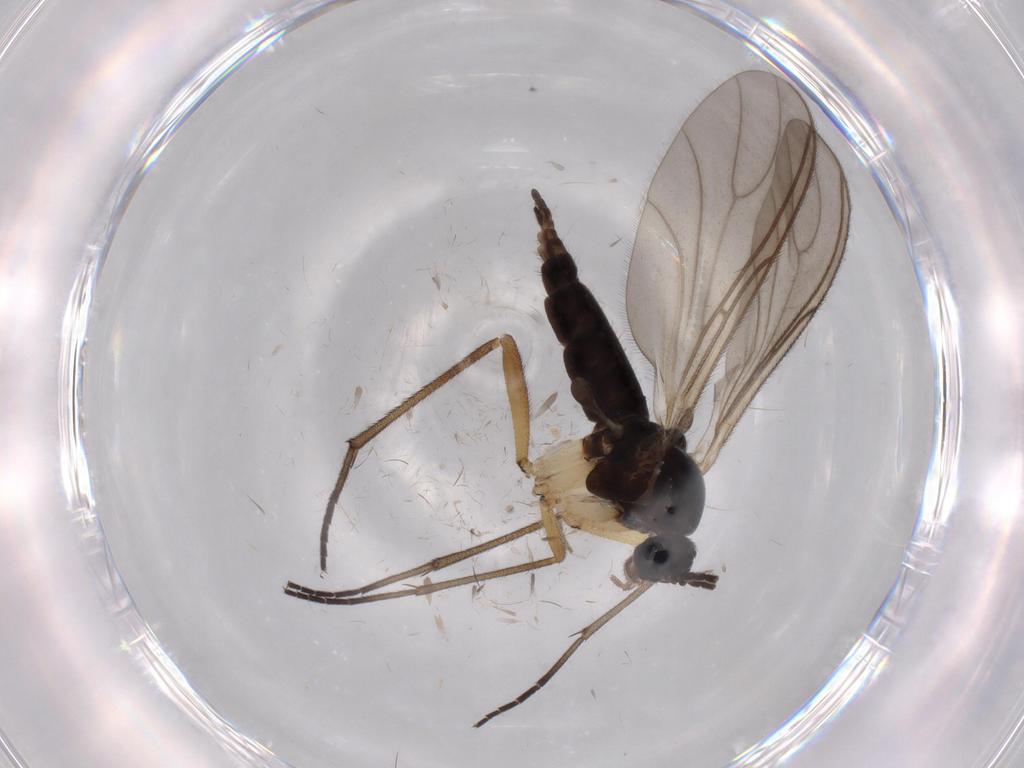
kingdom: Animalia
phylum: Arthropoda
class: Insecta
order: Diptera
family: Sciaridae
